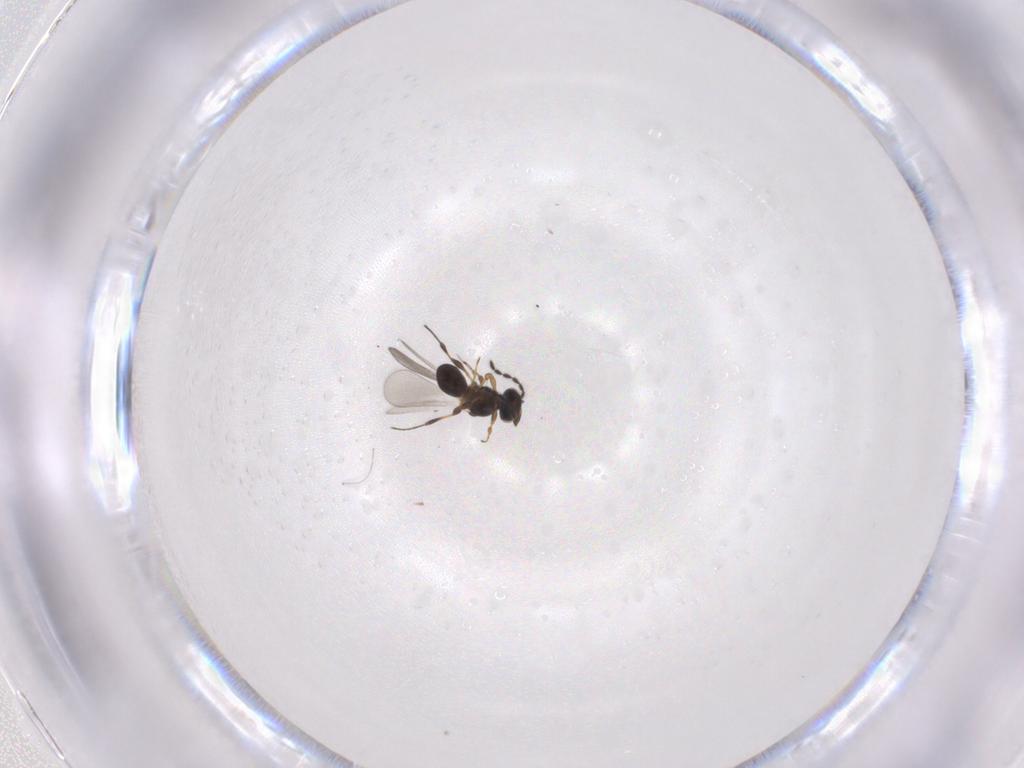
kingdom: Animalia
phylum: Arthropoda
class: Insecta
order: Hymenoptera
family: Platygastridae
